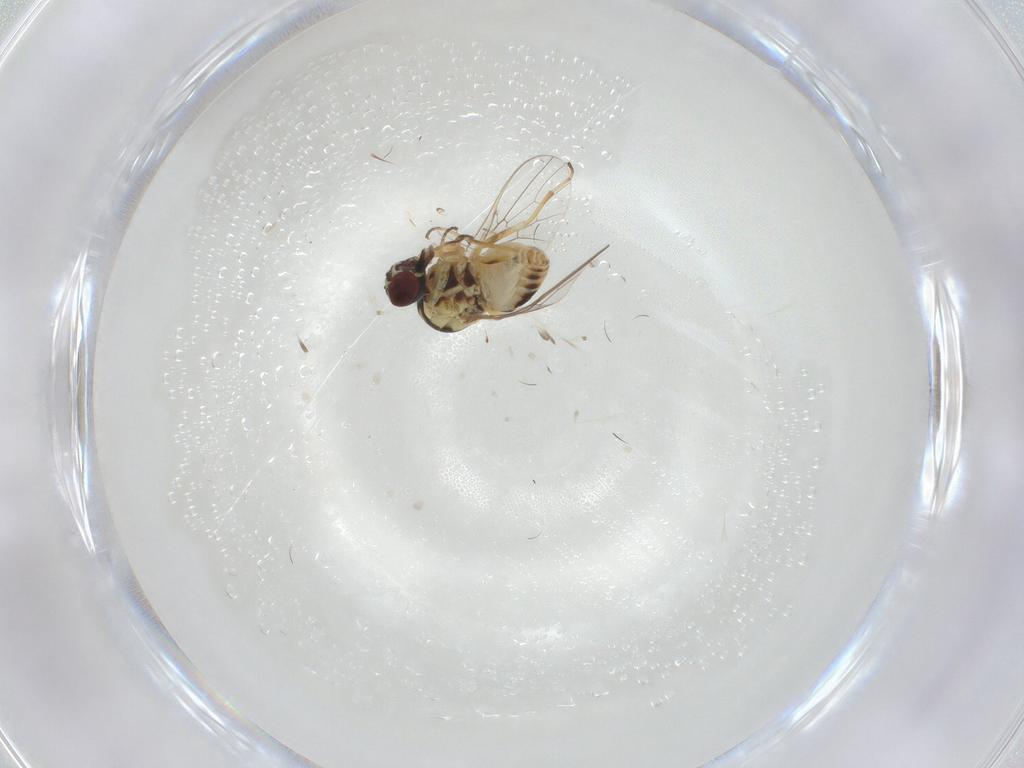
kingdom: Animalia
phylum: Arthropoda
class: Insecta
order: Diptera
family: Bombyliidae
